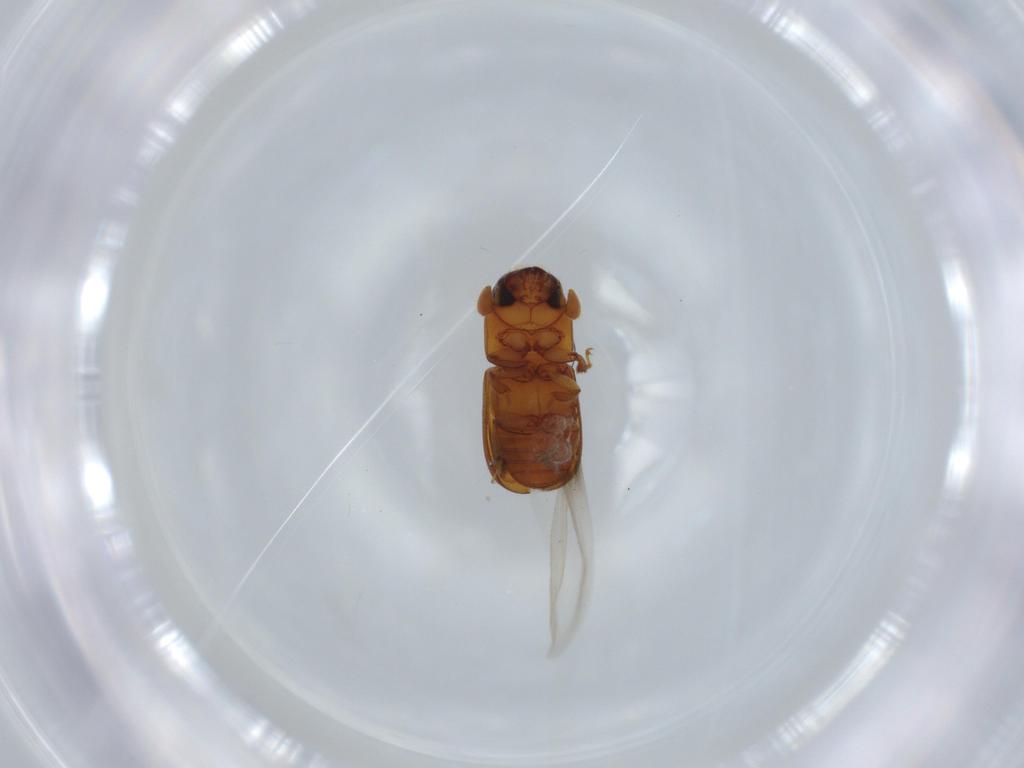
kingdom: Animalia
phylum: Arthropoda
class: Insecta
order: Coleoptera
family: Curculionidae
